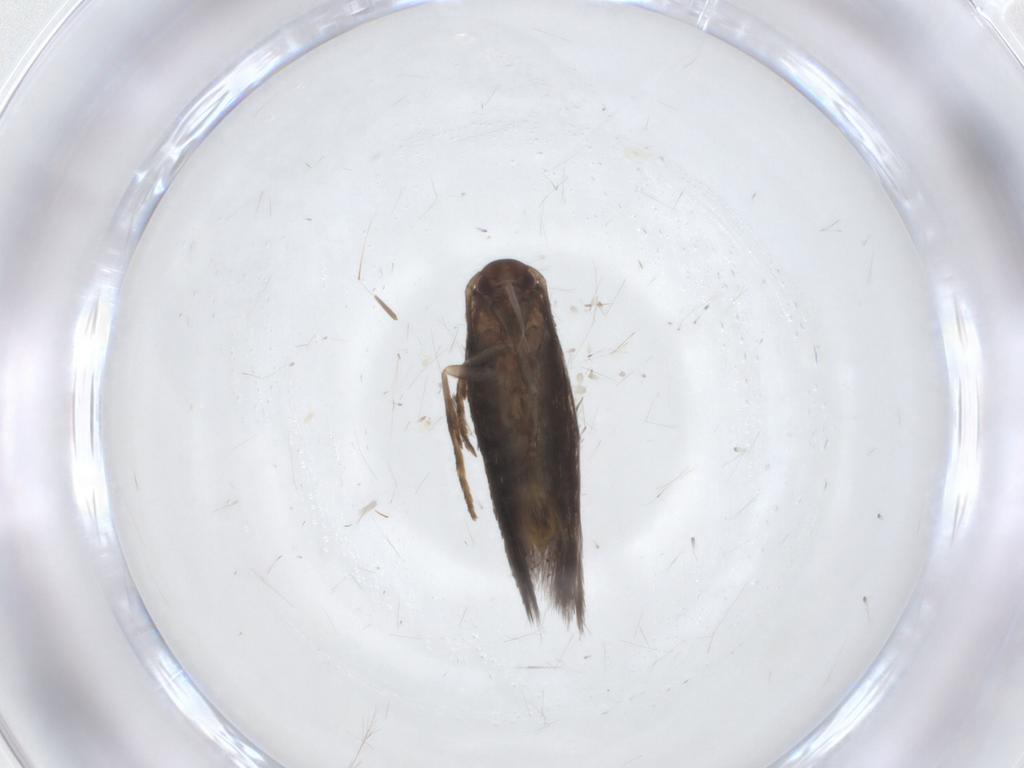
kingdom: Animalia
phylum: Arthropoda
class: Insecta
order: Lepidoptera
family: Elachistidae
